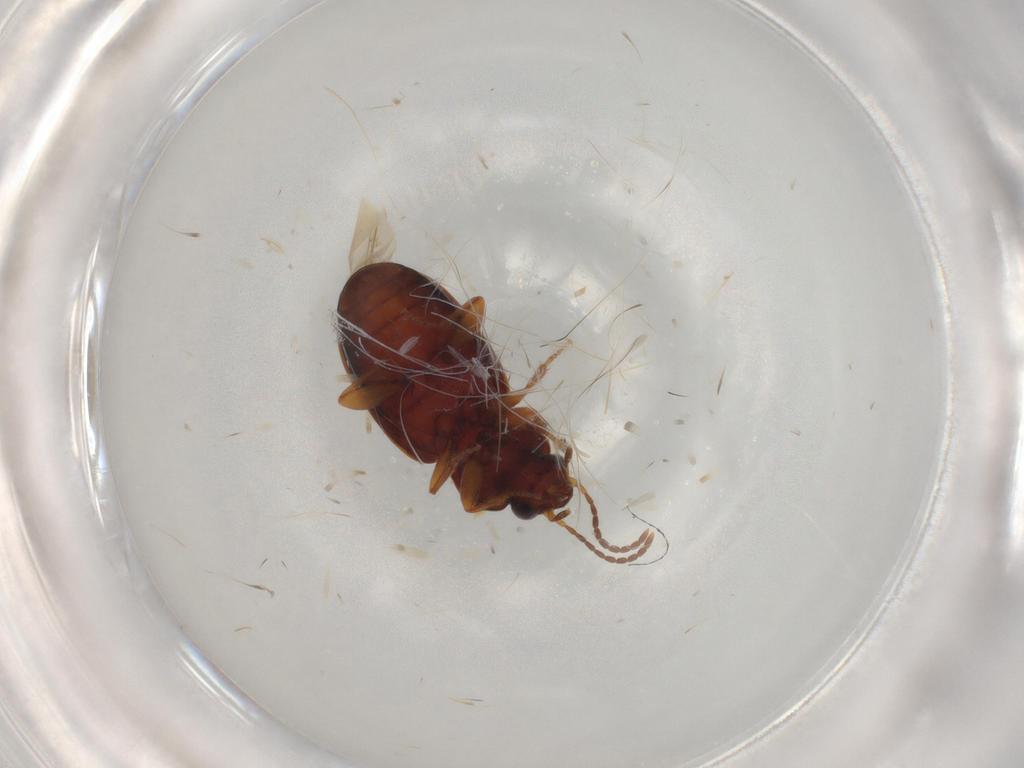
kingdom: Animalia
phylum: Arthropoda
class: Insecta
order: Coleoptera
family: Carabidae
